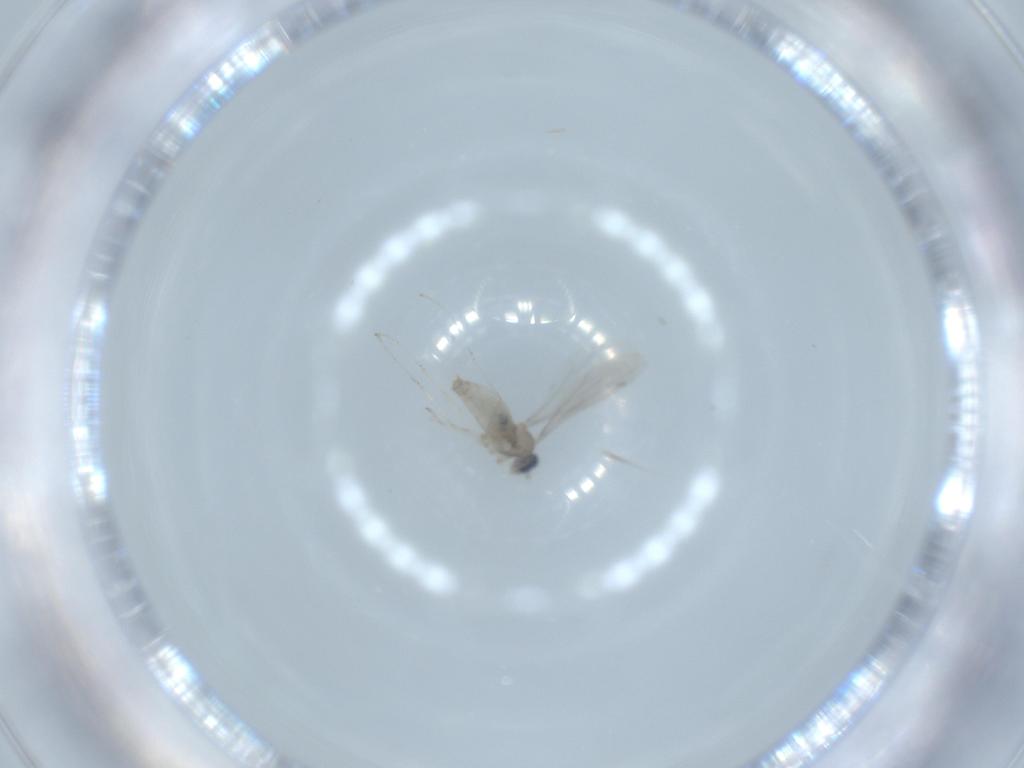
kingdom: Animalia
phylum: Arthropoda
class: Insecta
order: Diptera
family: Cecidomyiidae
